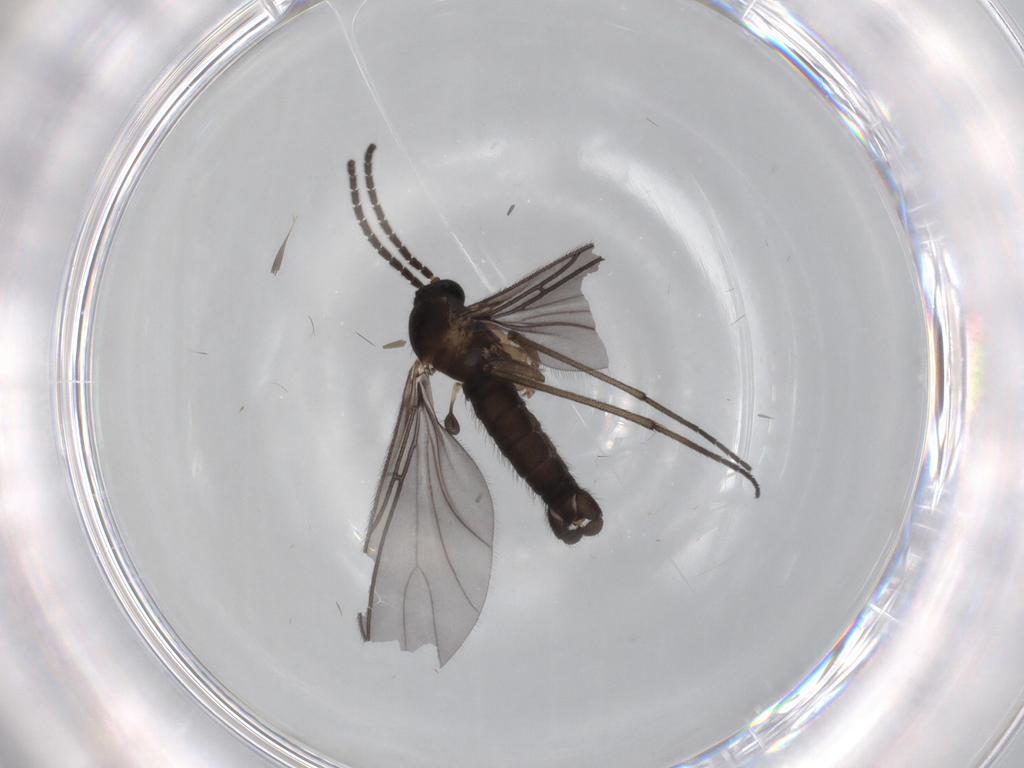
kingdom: Animalia
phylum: Arthropoda
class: Insecta
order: Diptera
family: Sciaridae
